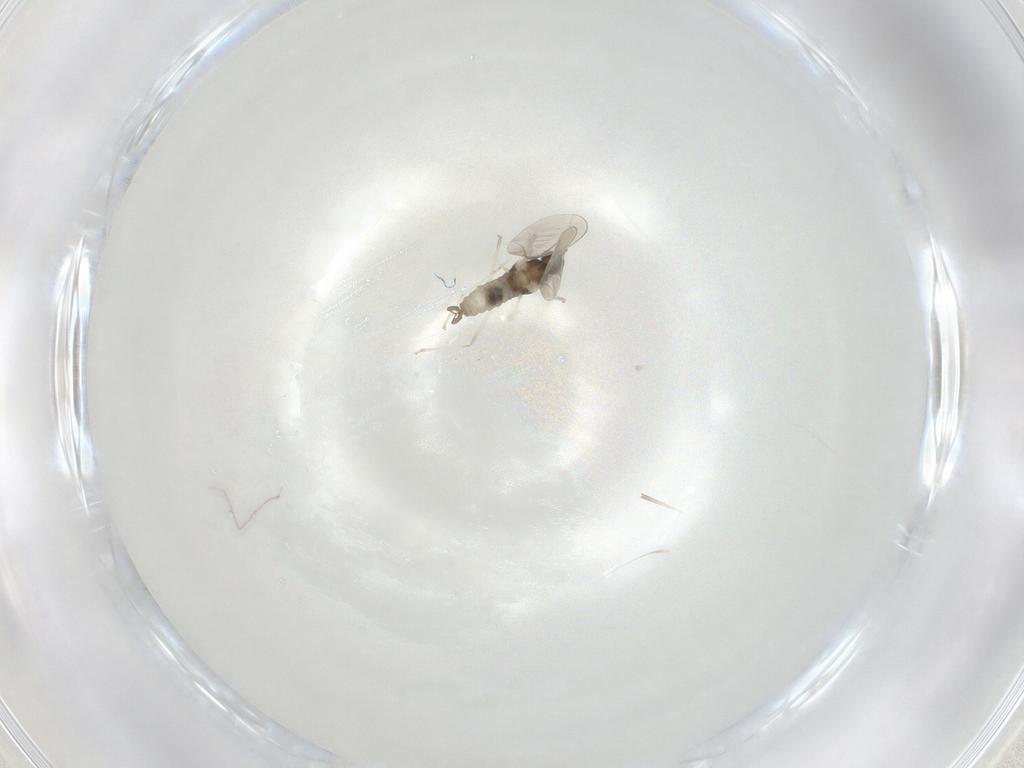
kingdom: Animalia
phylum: Arthropoda
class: Insecta
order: Diptera
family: Cecidomyiidae
